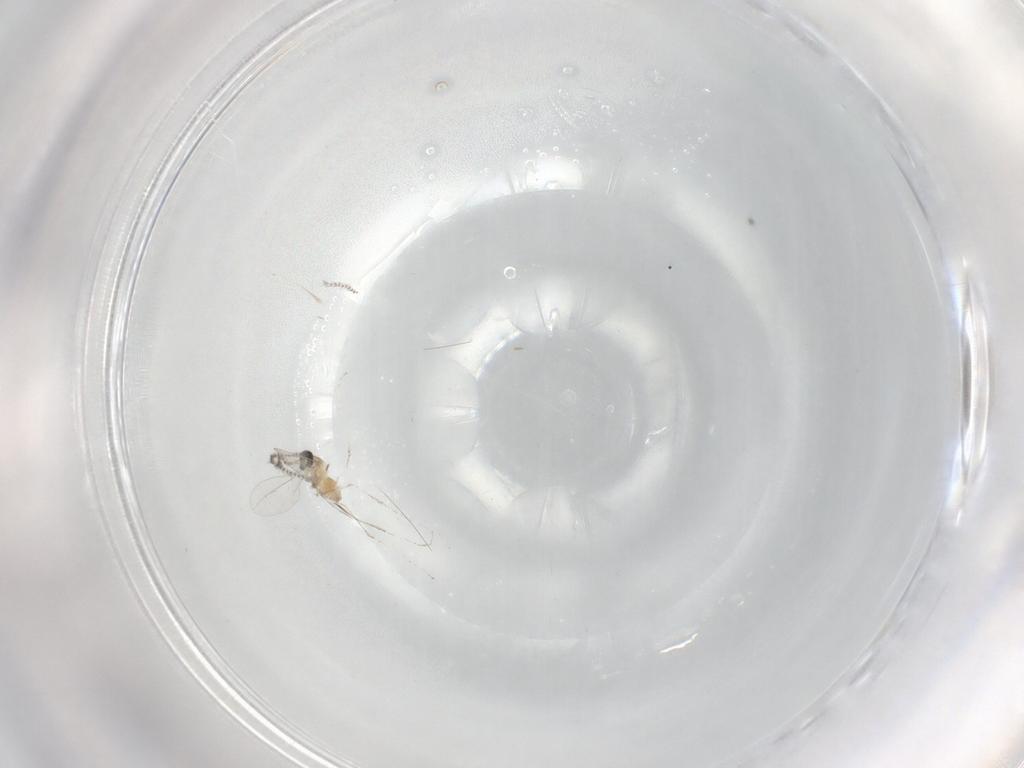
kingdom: Animalia
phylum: Arthropoda
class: Insecta
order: Diptera
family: Cecidomyiidae
